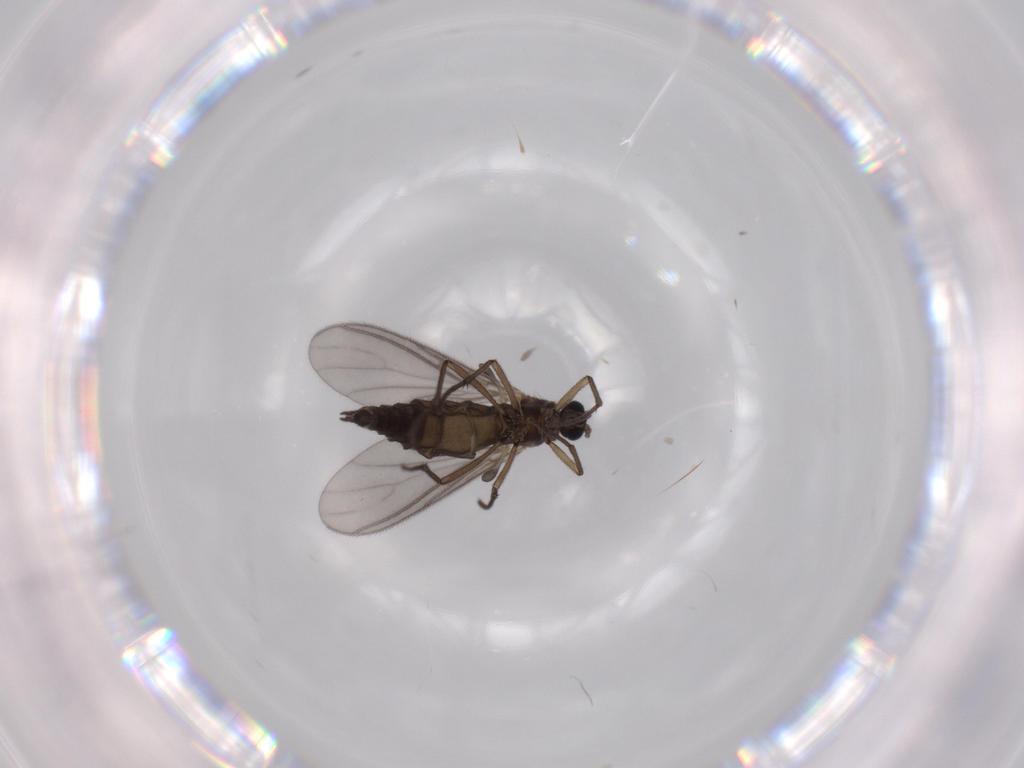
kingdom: Animalia
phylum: Arthropoda
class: Insecta
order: Diptera
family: Sciaridae
